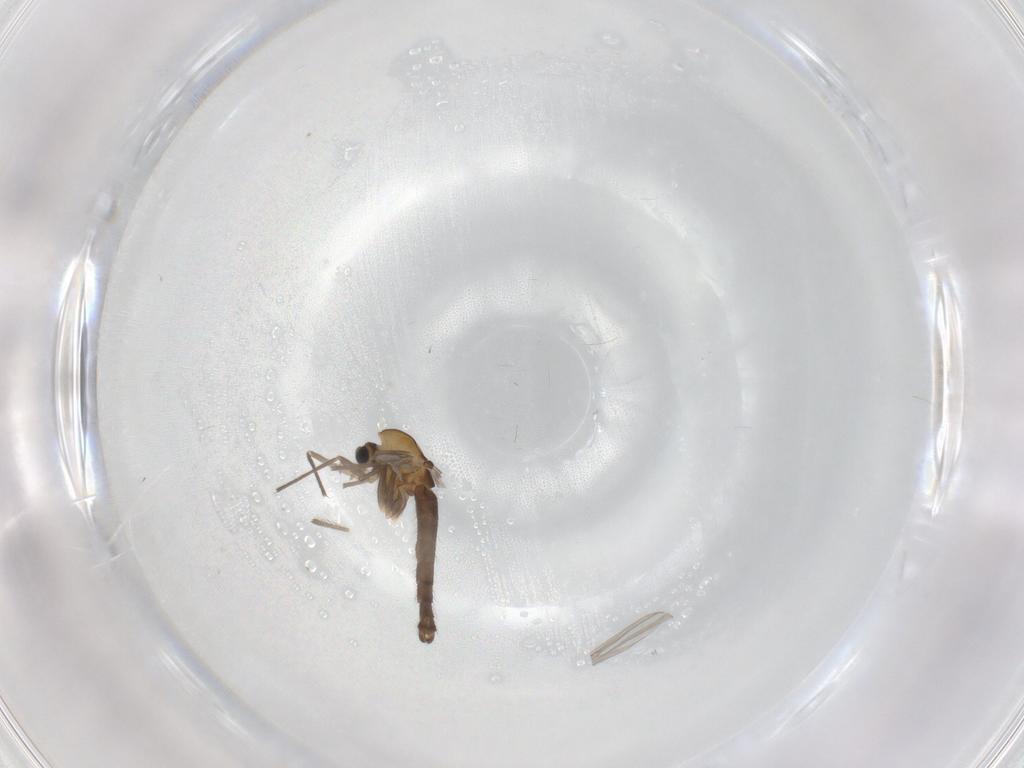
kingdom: Animalia
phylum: Arthropoda
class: Insecta
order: Diptera
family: Chironomidae
